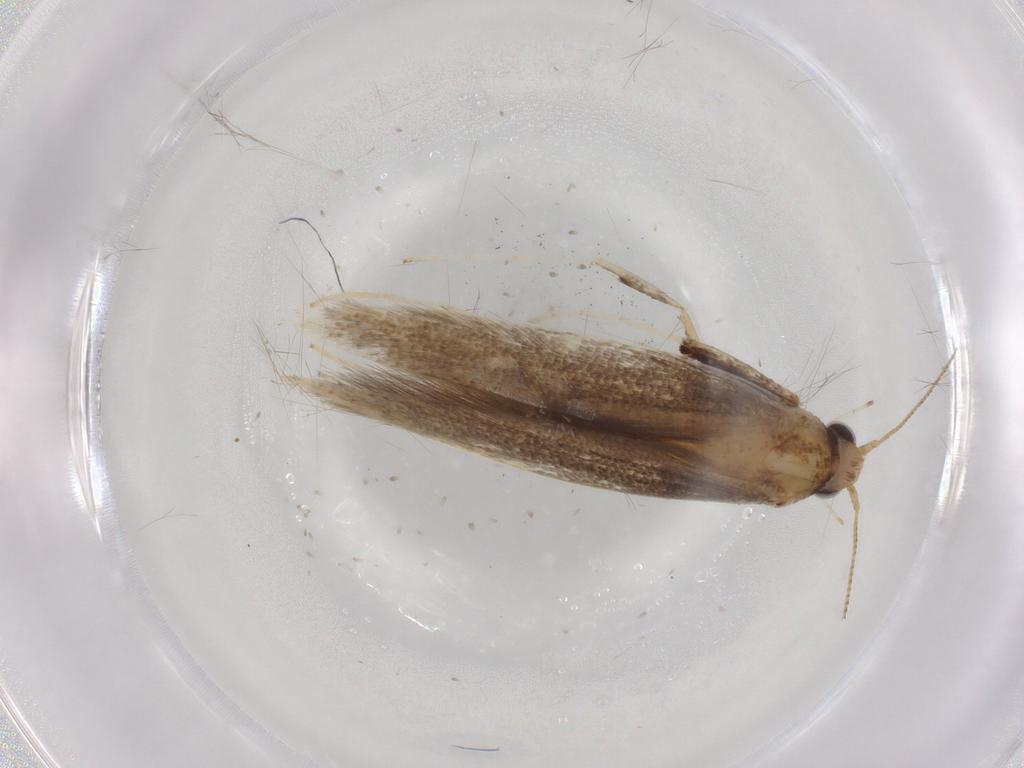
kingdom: Animalia
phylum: Arthropoda
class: Insecta
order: Lepidoptera
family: Gracillariidae
